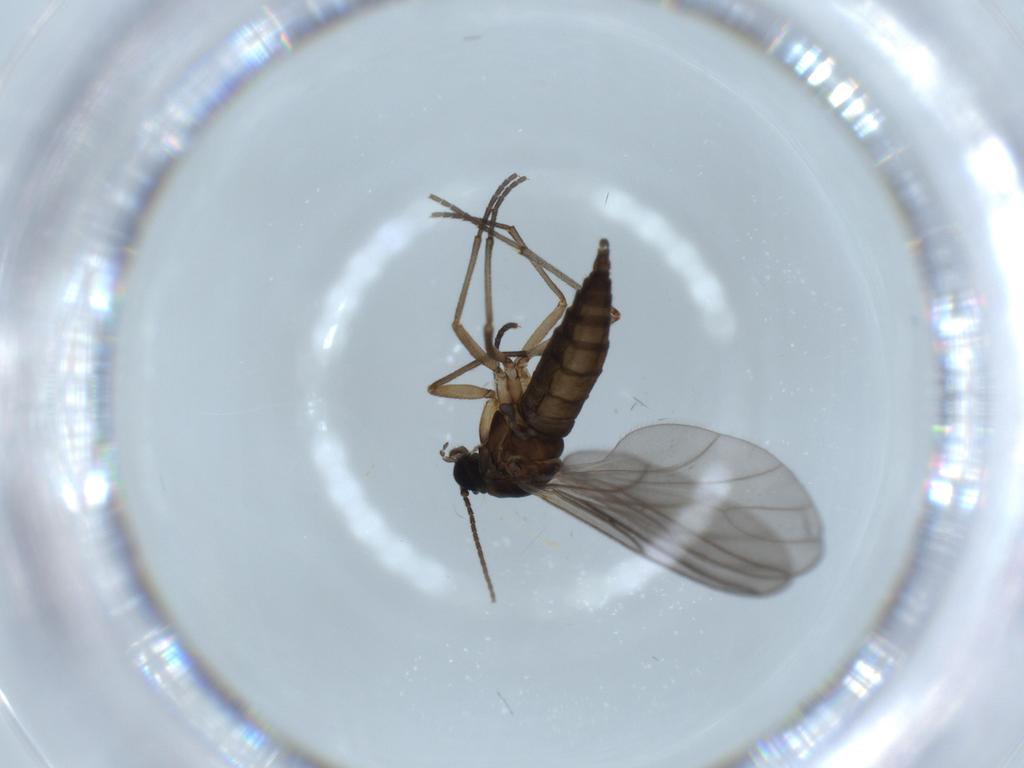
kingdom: Animalia
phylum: Arthropoda
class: Insecta
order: Diptera
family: Sciaridae
